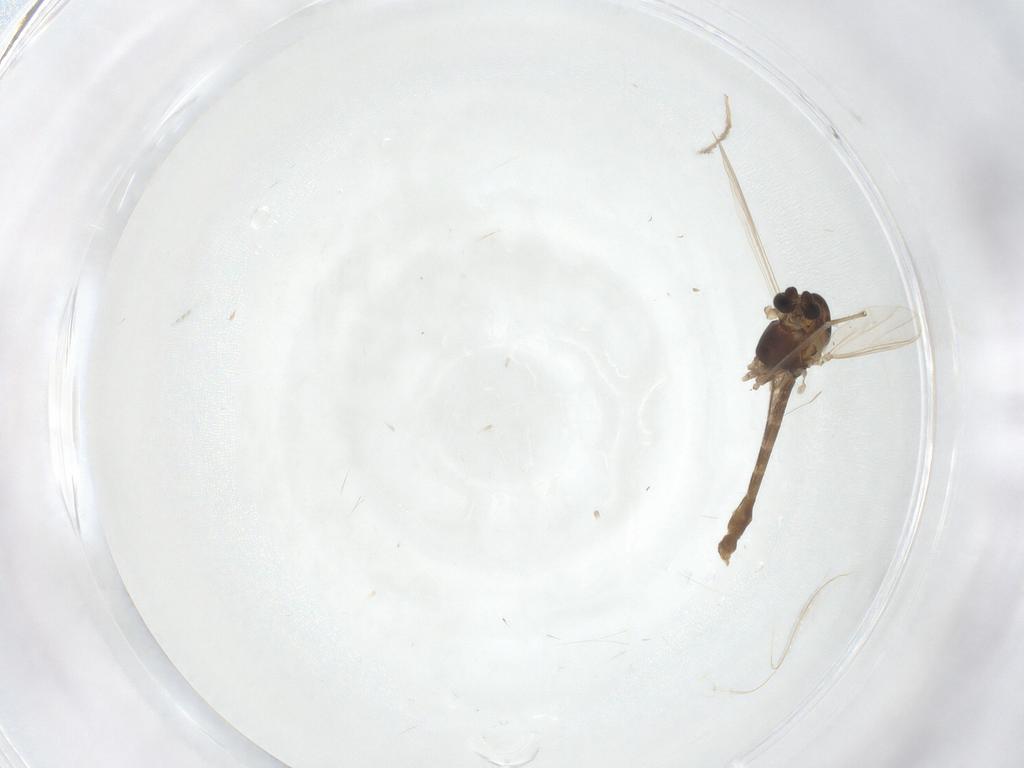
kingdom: Animalia
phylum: Arthropoda
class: Insecta
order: Diptera
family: Chironomidae
